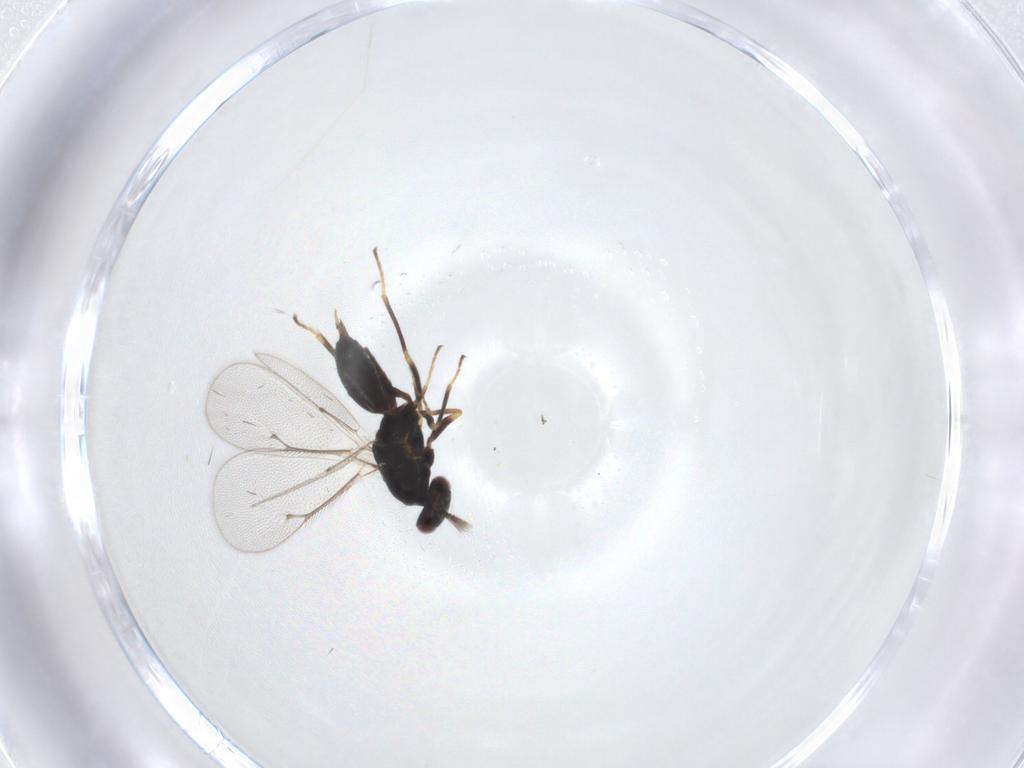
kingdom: Animalia
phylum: Arthropoda
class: Insecta
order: Hymenoptera
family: Eulophidae
